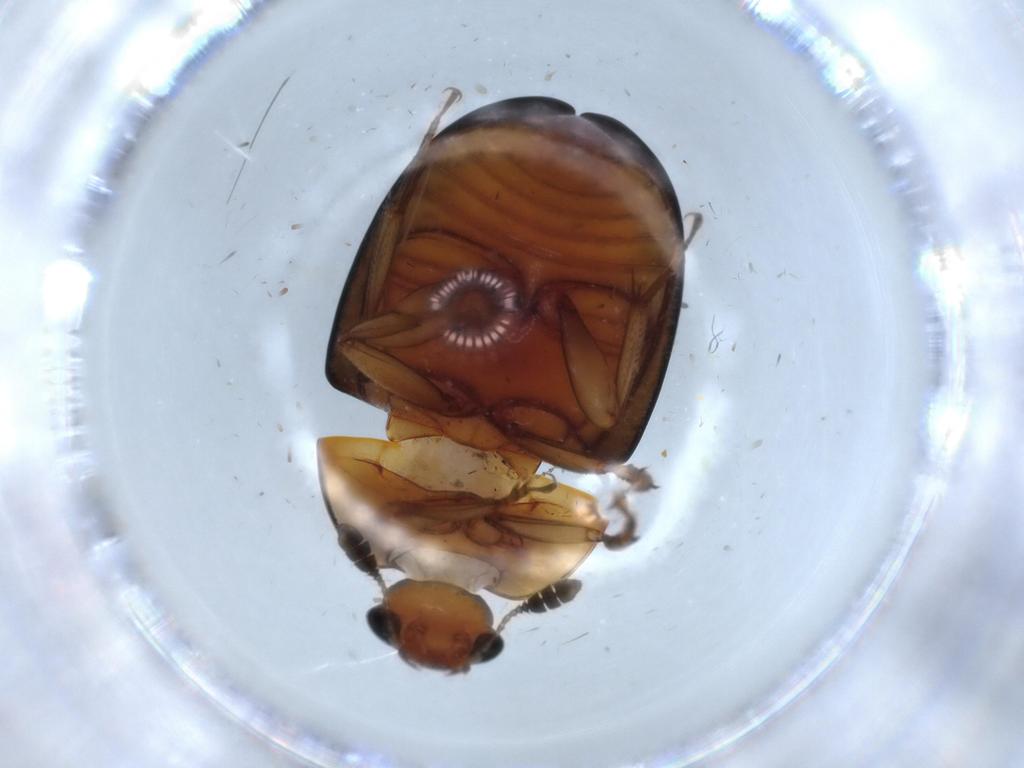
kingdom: Animalia
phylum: Arthropoda
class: Insecta
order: Coleoptera
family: Nitidulidae
